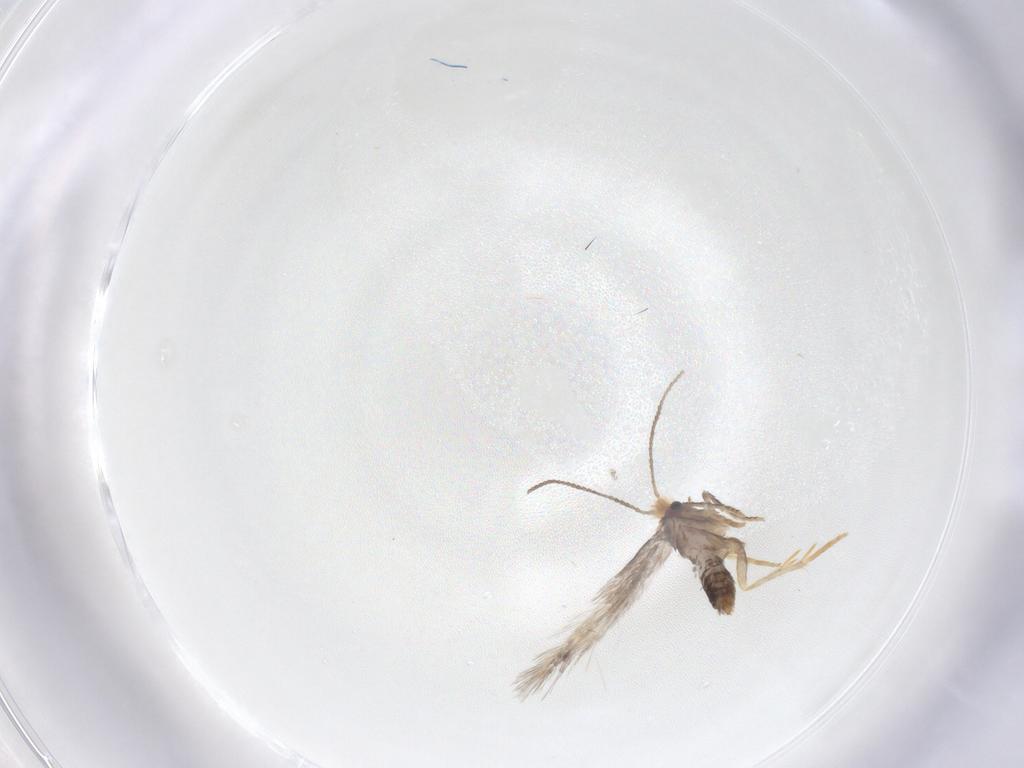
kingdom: Animalia
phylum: Arthropoda
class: Insecta
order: Lepidoptera
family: Nepticulidae
